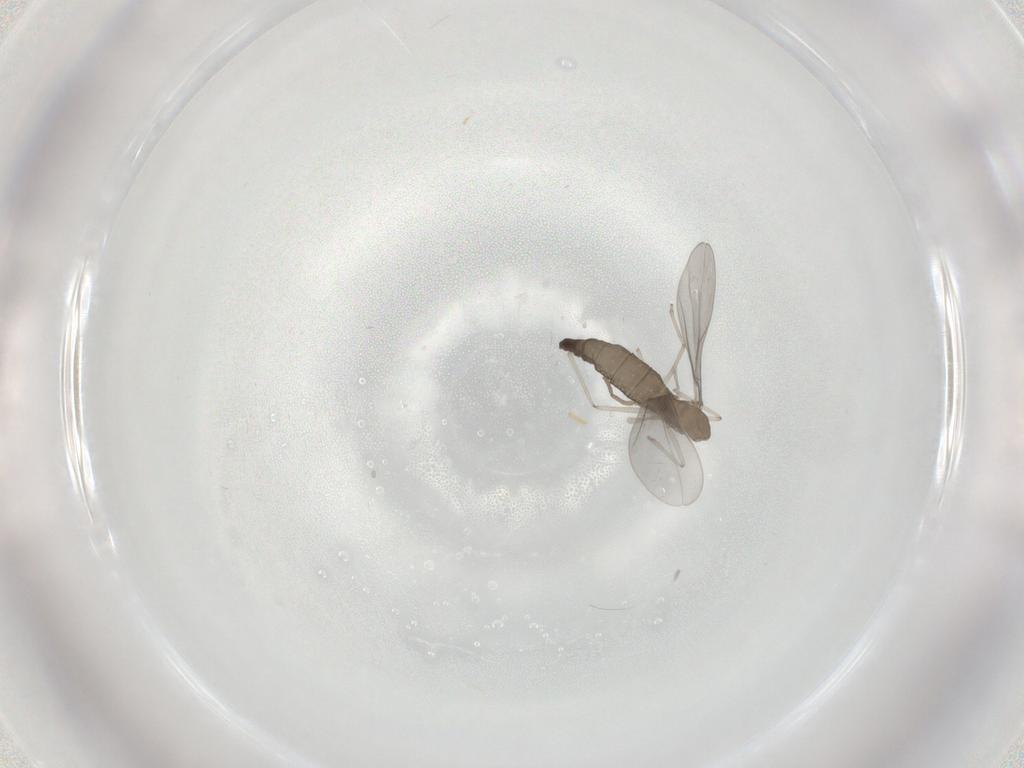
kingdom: Animalia
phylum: Arthropoda
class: Insecta
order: Diptera
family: Cecidomyiidae
